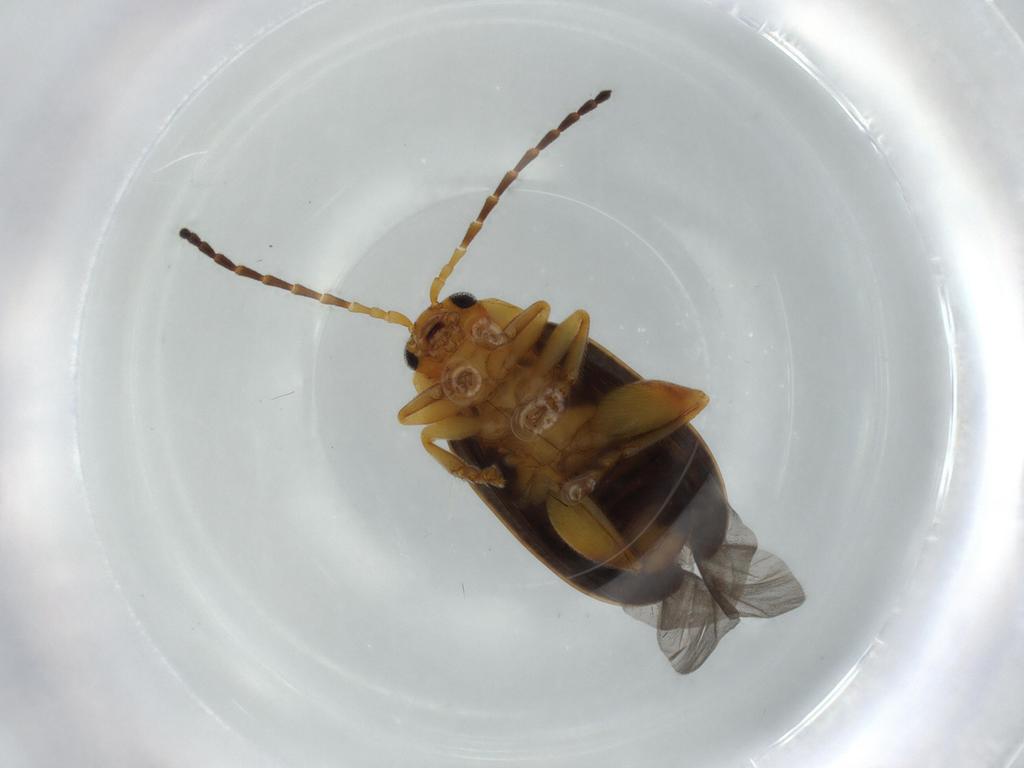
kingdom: Animalia
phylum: Arthropoda
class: Insecta
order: Coleoptera
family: Chrysomelidae
